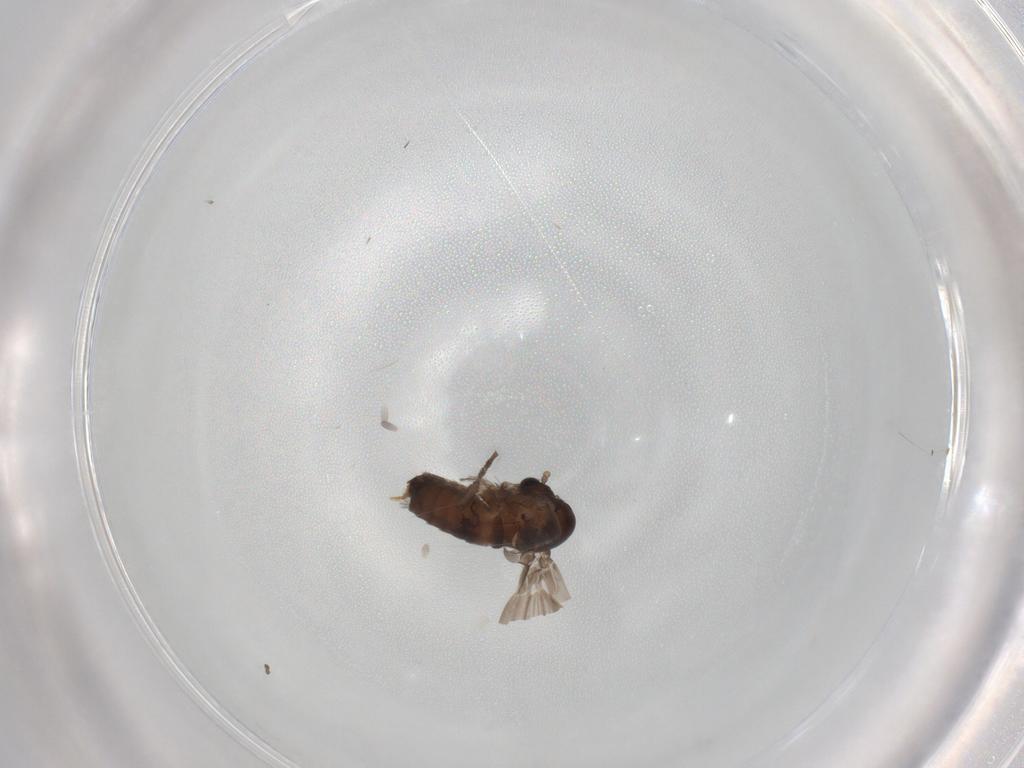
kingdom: Animalia
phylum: Arthropoda
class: Insecta
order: Diptera
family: Psychodidae
